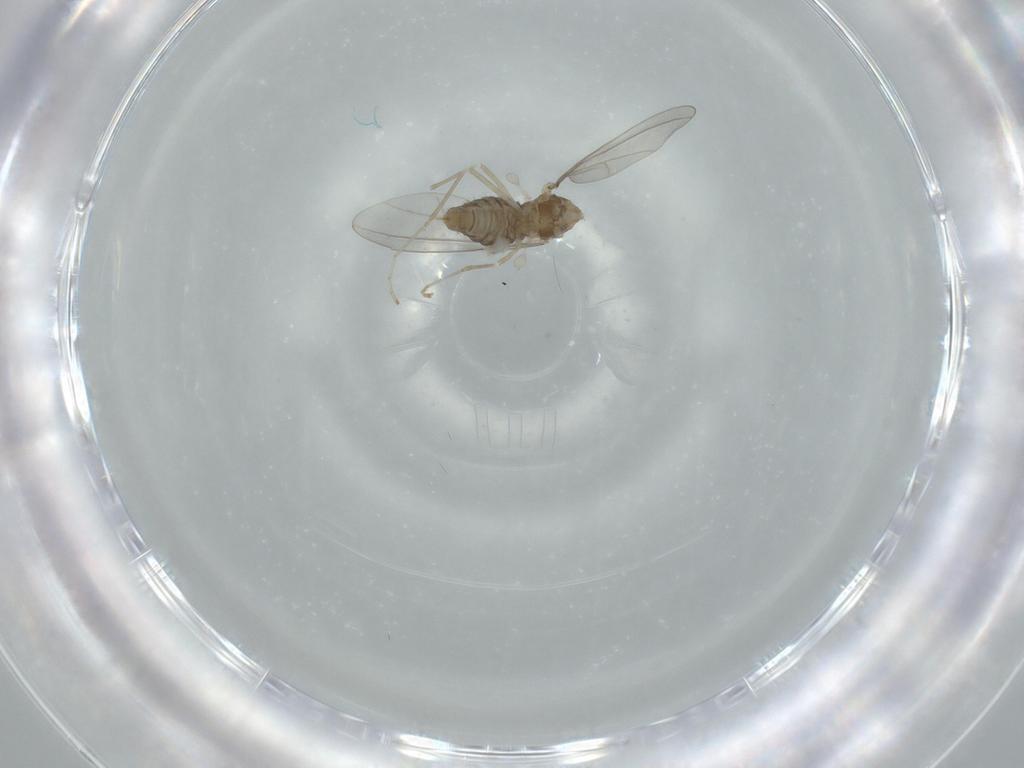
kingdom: Animalia
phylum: Arthropoda
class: Insecta
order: Diptera
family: Cecidomyiidae
